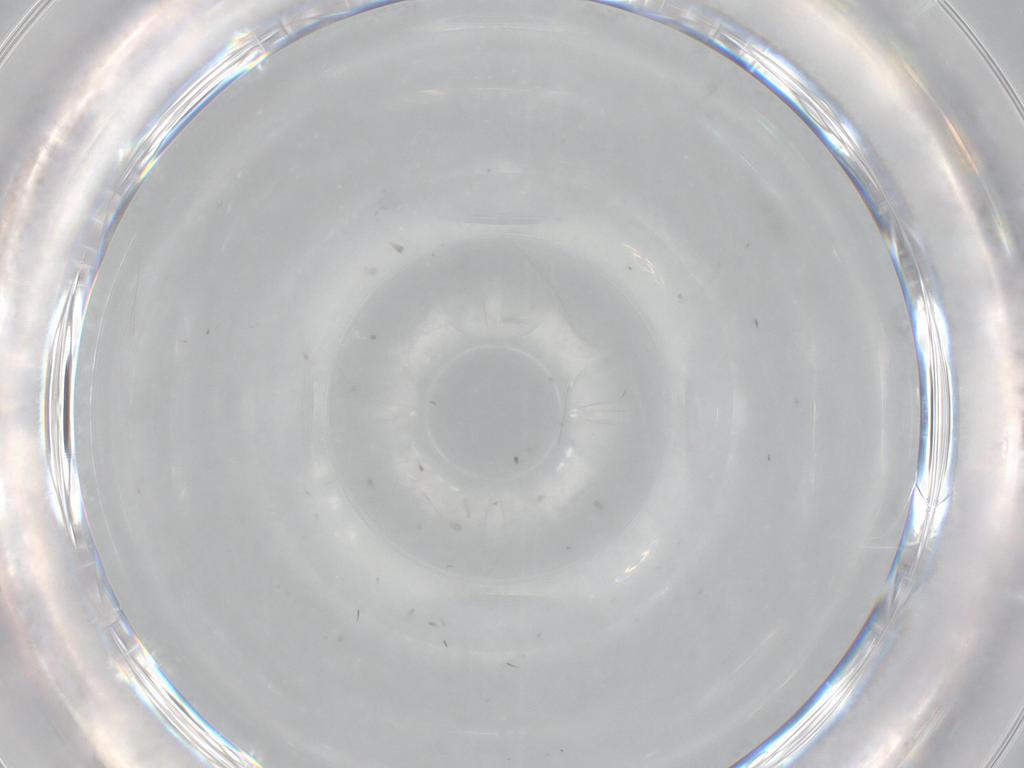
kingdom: Animalia
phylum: Arthropoda
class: Insecta
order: Hymenoptera
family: Mymaridae
